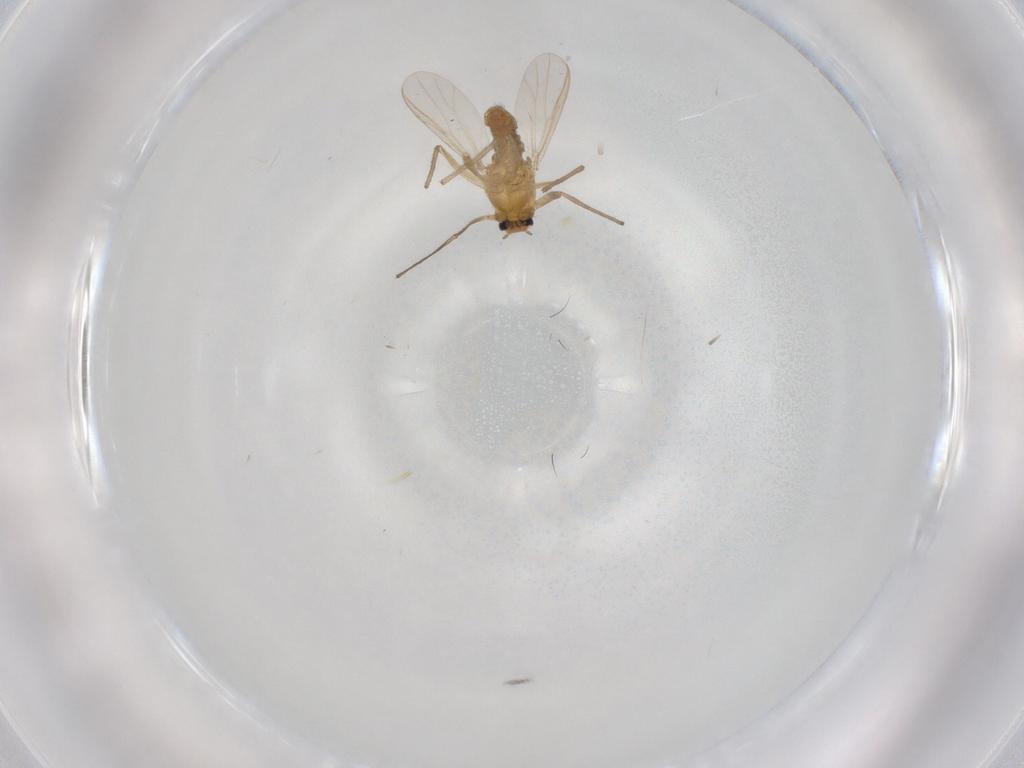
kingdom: Animalia
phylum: Arthropoda
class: Insecta
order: Diptera
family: Chironomidae
